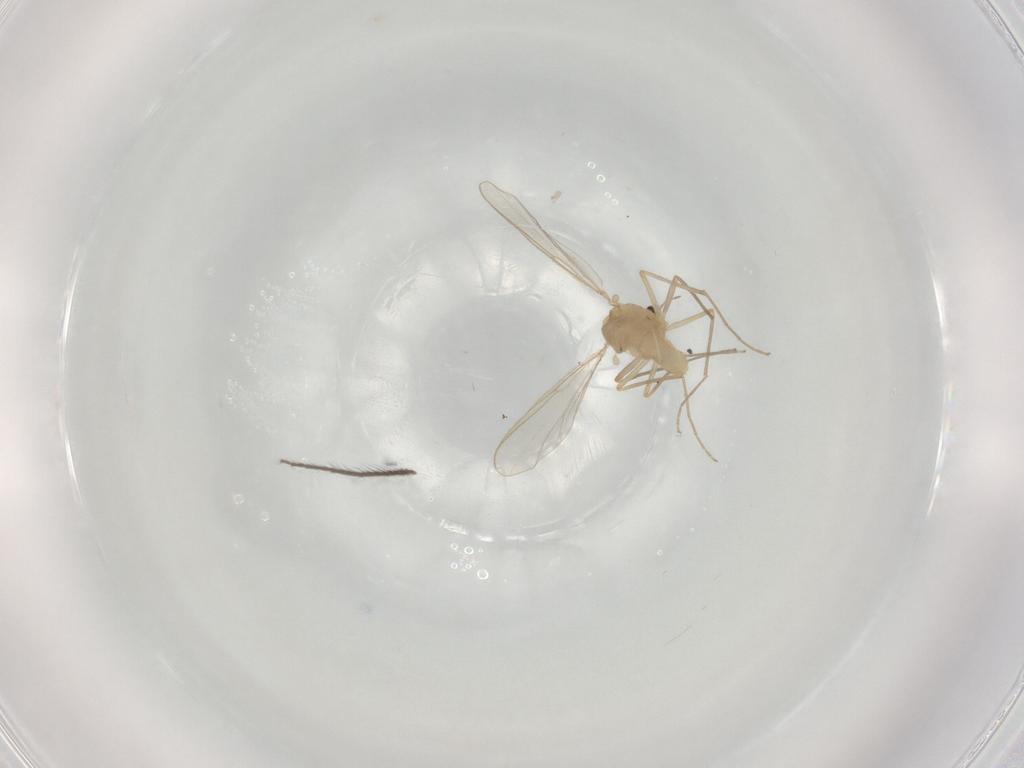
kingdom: Animalia
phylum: Arthropoda
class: Insecta
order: Diptera
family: Chironomidae
